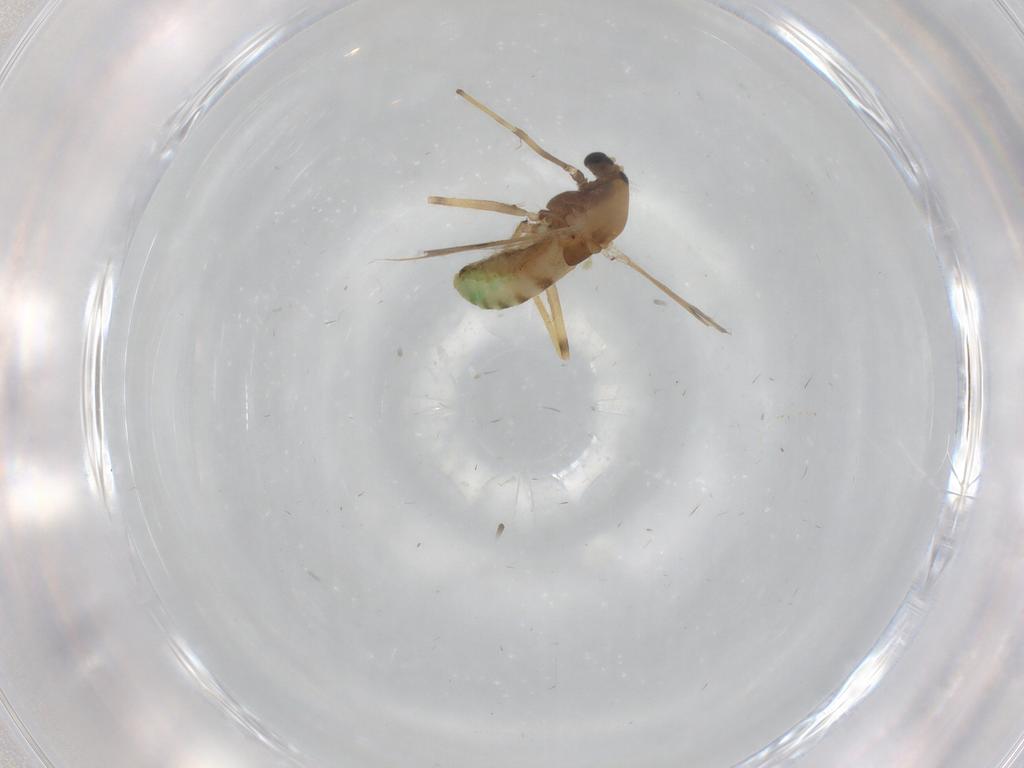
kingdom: Animalia
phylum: Arthropoda
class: Insecta
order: Diptera
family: Chironomidae
